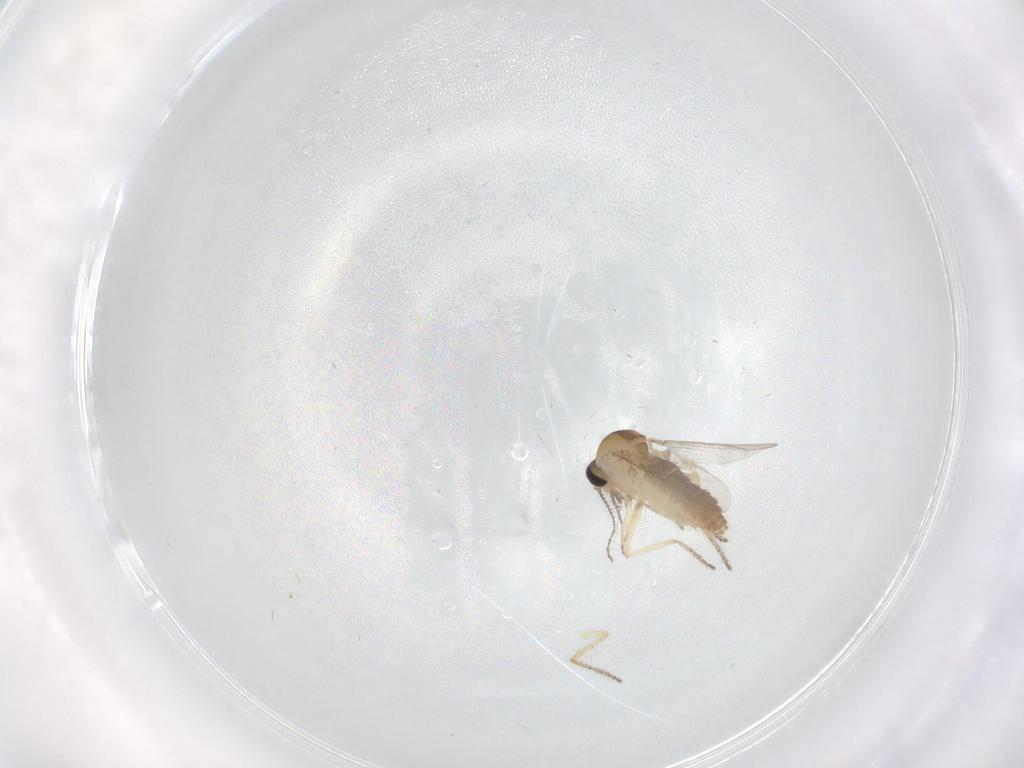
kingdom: Animalia
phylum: Arthropoda
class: Insecta
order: Diptera
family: Ceratopogonidae
